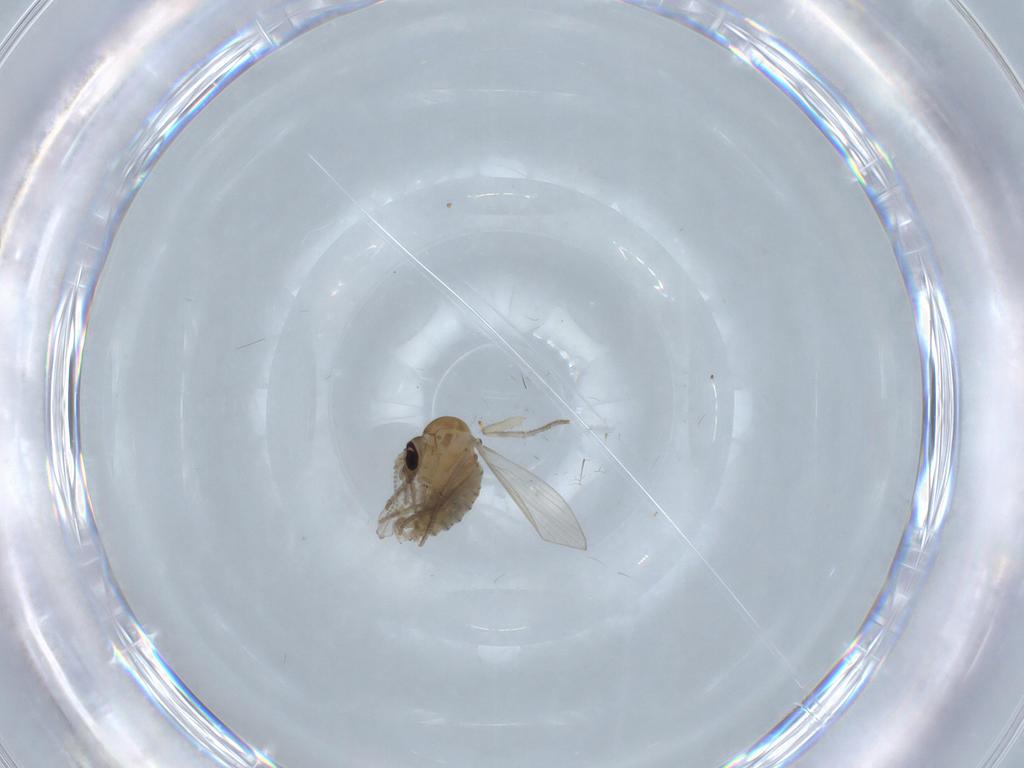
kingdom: Animalia
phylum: Arthropoda
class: Insecta
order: Diptera
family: Psychodidae
